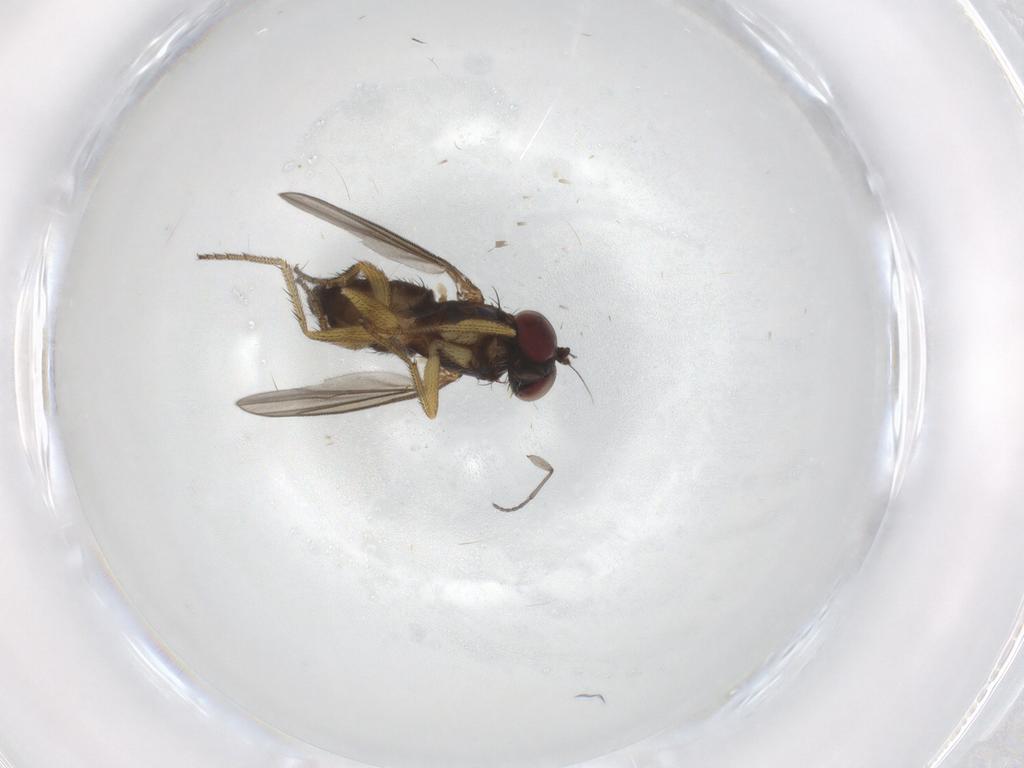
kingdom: Animalia
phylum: Arthropoda
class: Insecta
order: Diptera
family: Dolichopodidae
